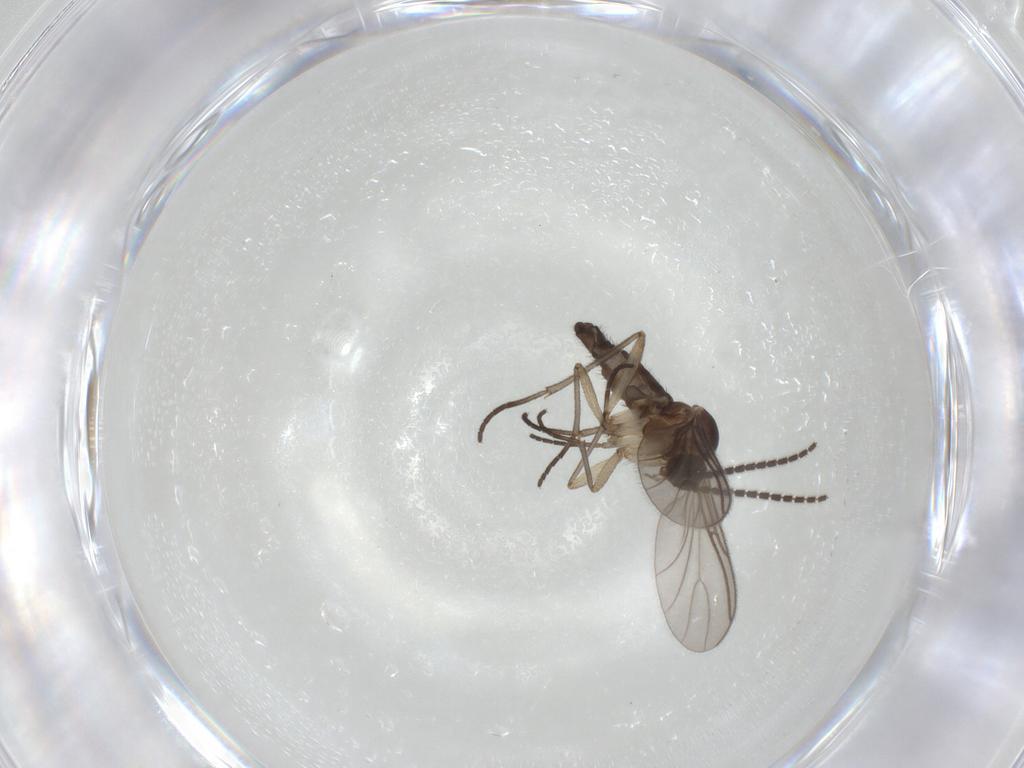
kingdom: Animalia
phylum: Arthropoda
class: Insecta
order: Diptera
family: Sciaridae
